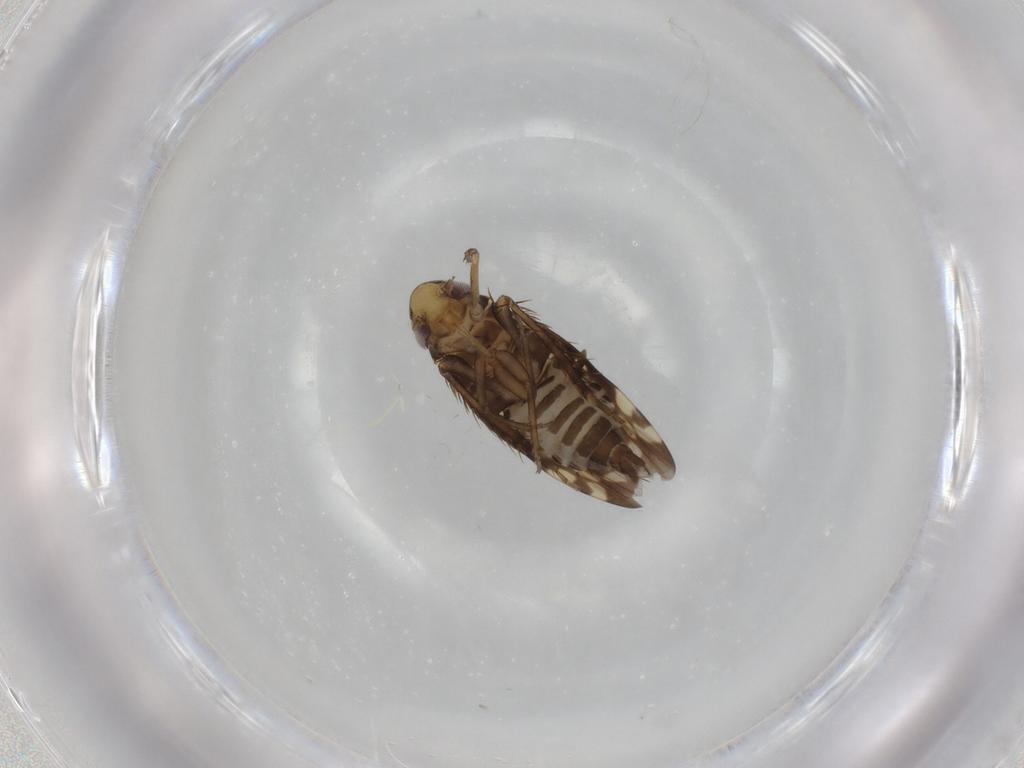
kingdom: Animalia
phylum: Arthropoda
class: Insecta
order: Hemiptera
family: Cicadellidae
